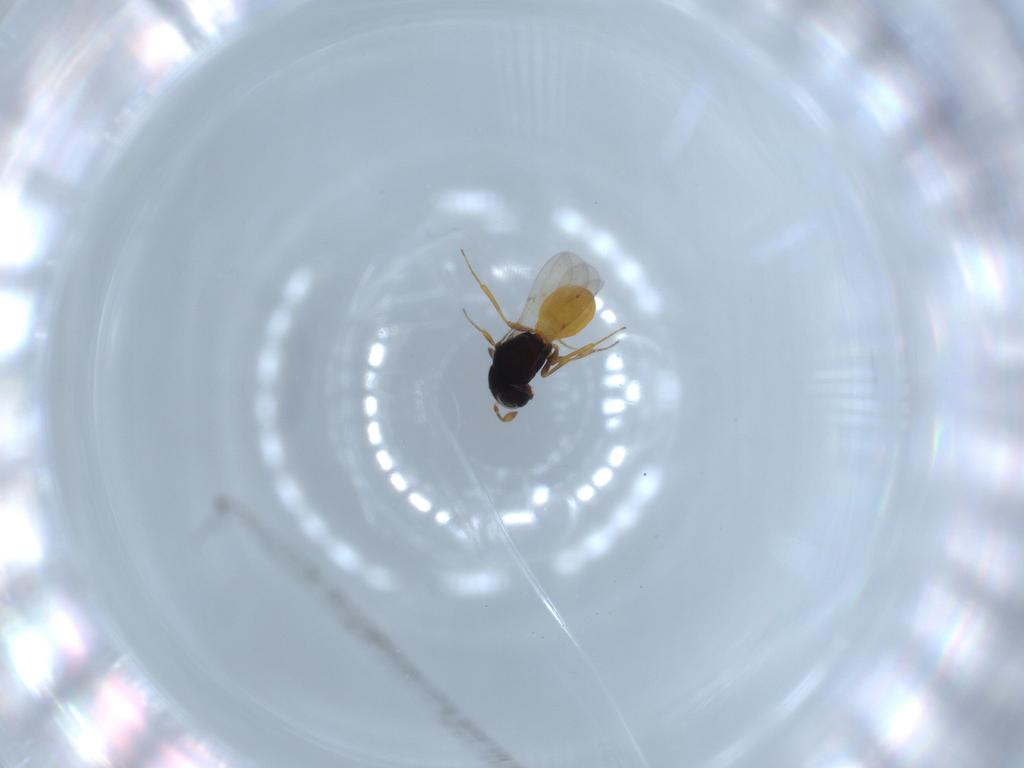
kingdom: Animalia
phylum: Arthropoda
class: Insecta
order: Hymenoptera
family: Scelionidae
